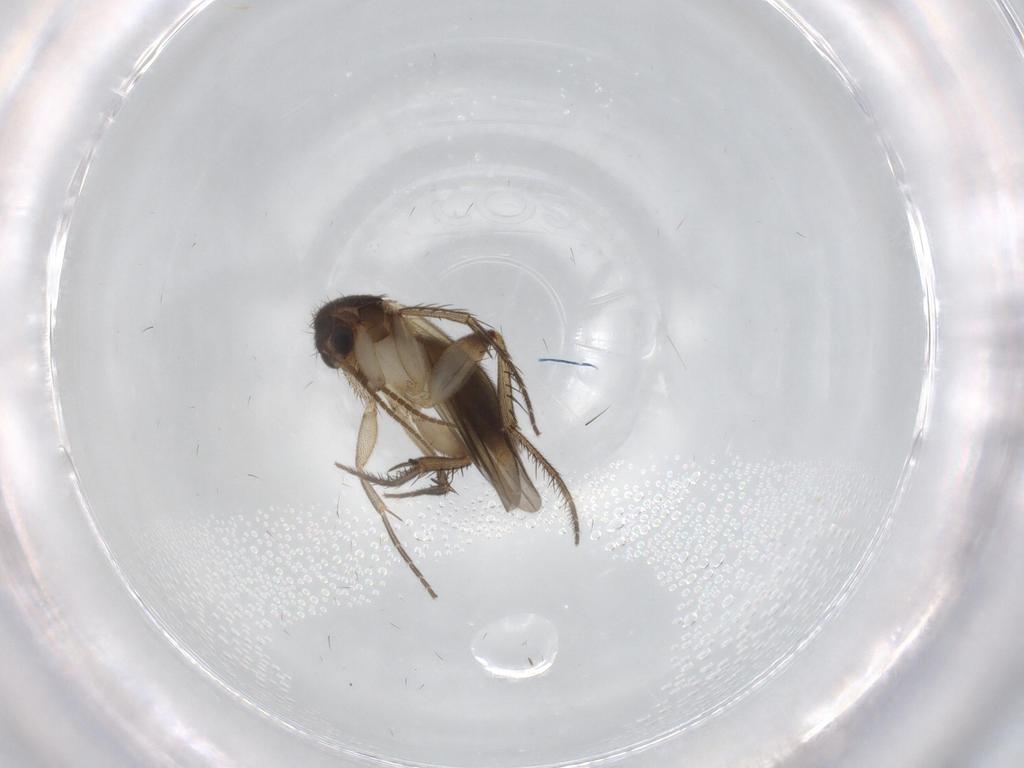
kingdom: Animalia
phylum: Arthropoda
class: Insecta
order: Diptera
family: Mycetophilidae
